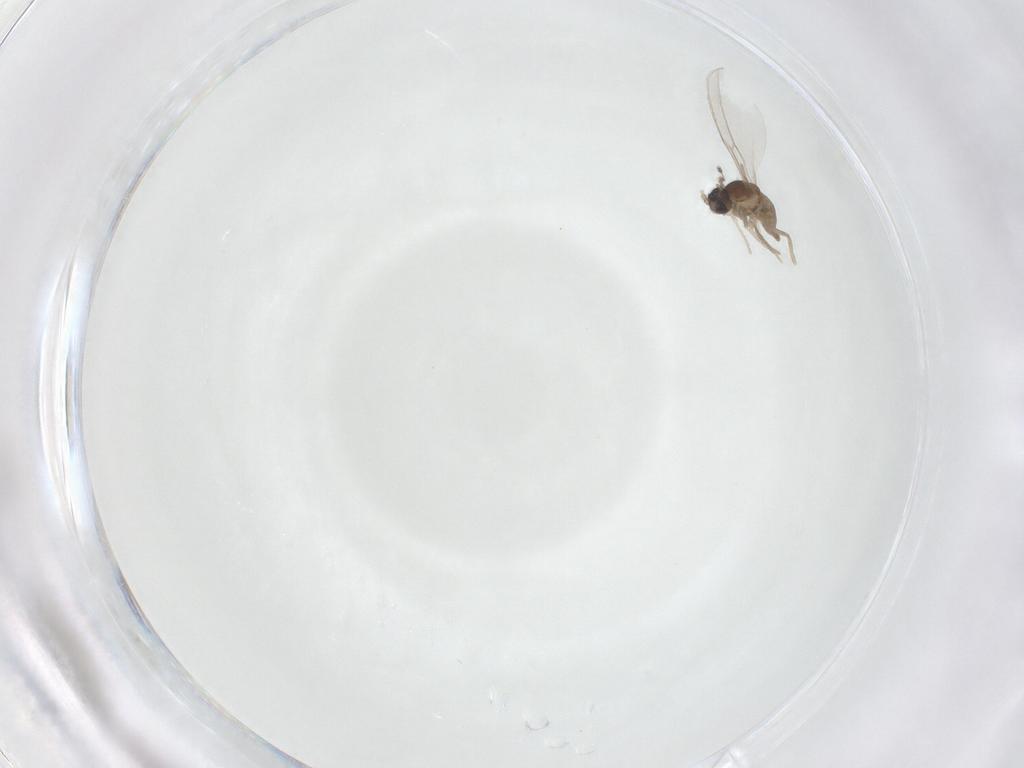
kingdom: Animalia
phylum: Arthropoda
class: Insecta
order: Diptera
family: Cecidomyiidae
